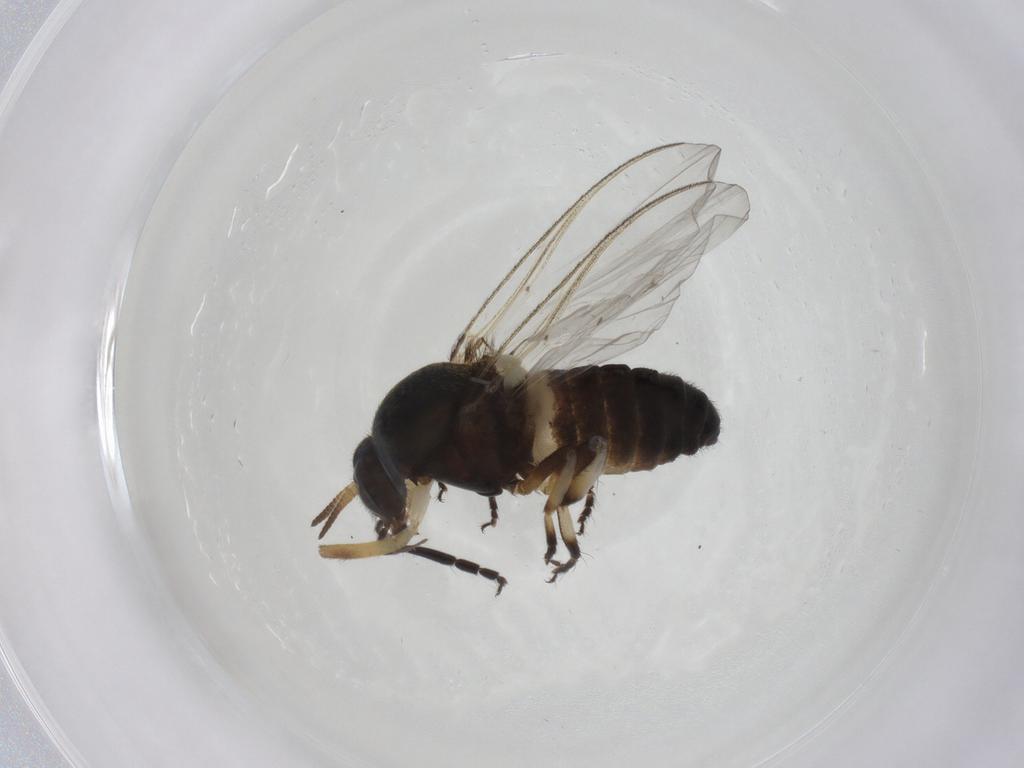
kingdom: Animalia
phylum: Arthropoda
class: Insecta
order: Diptera
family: Simuliidae
